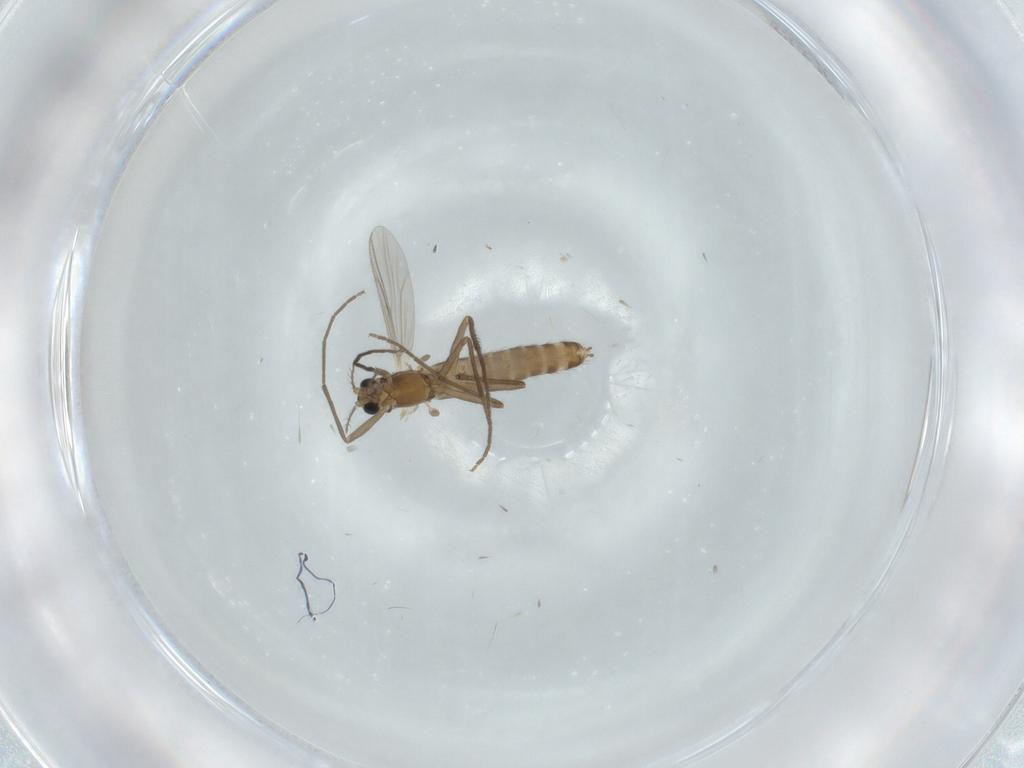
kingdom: Animalia
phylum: Arthropoda
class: Insecta
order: Diptera
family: Chironomidae
